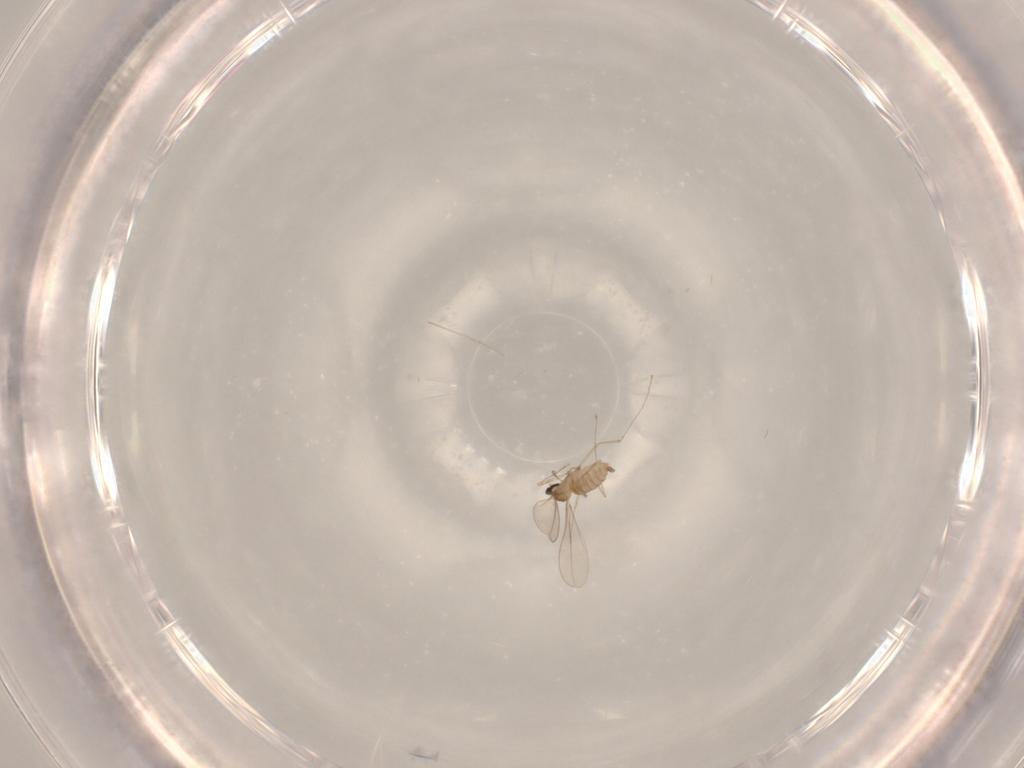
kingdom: Animalia
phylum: Arthropoda
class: Insecta
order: Diptera
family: Cecidomyiidae
